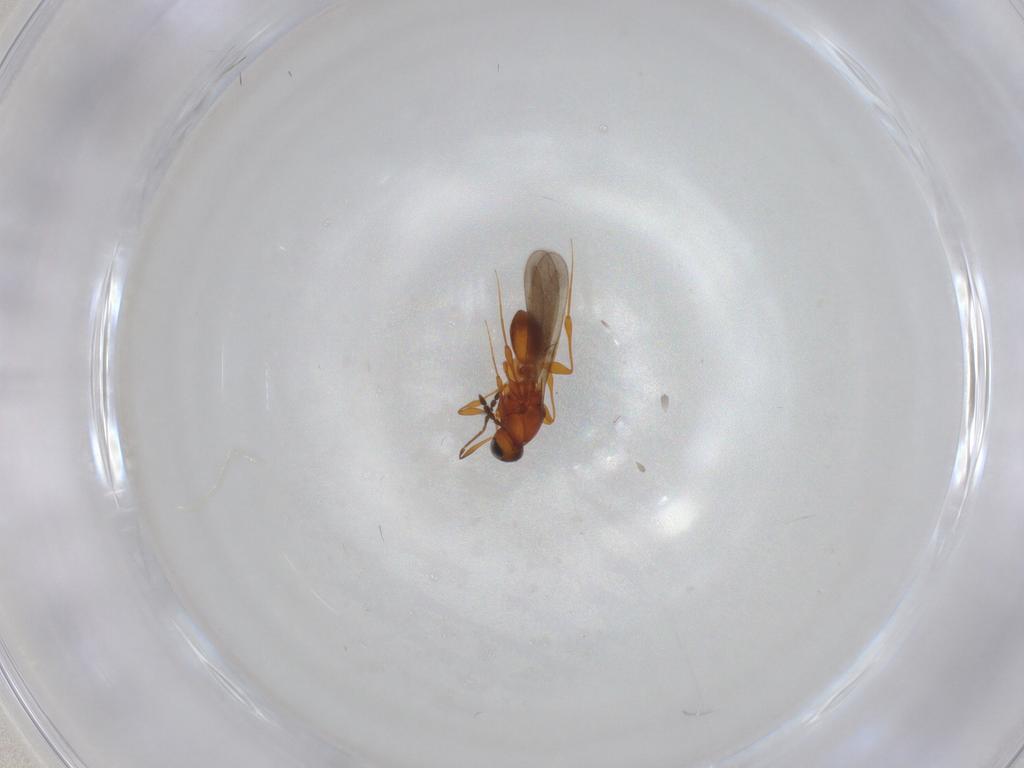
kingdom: Animalia
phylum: Arthropoda
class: Insecta
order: Hymenoptera
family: Platygastridae
